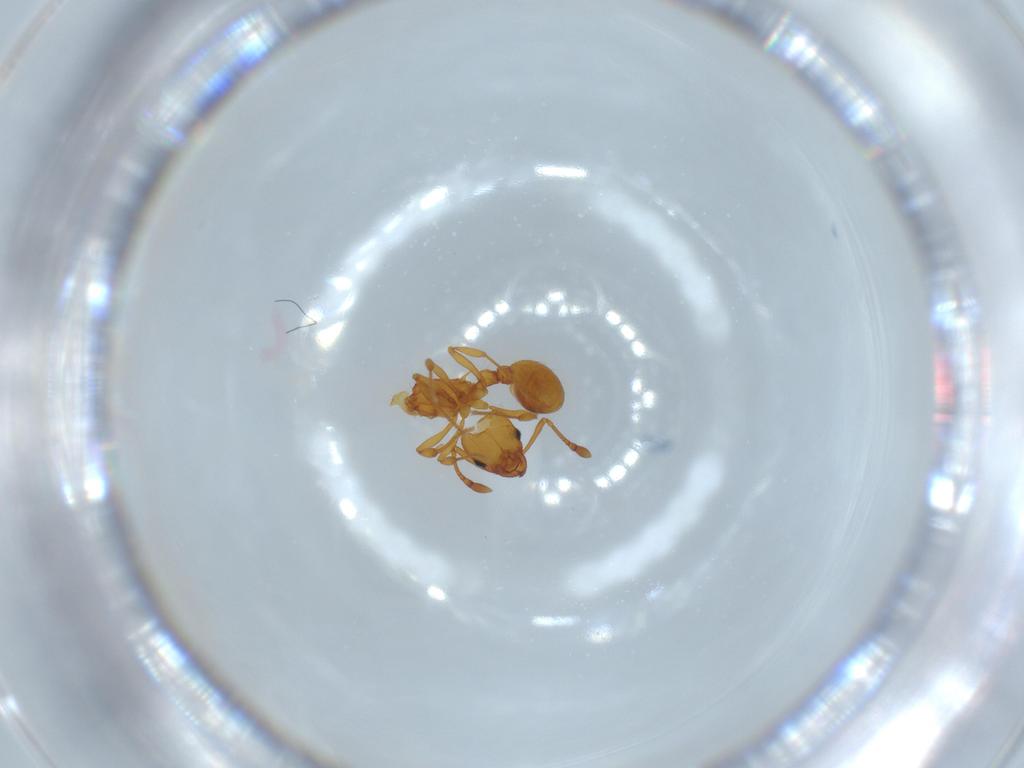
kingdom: Animalia
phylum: Arthropoda
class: Insecta
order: Hymenoptera
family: Formicidae
